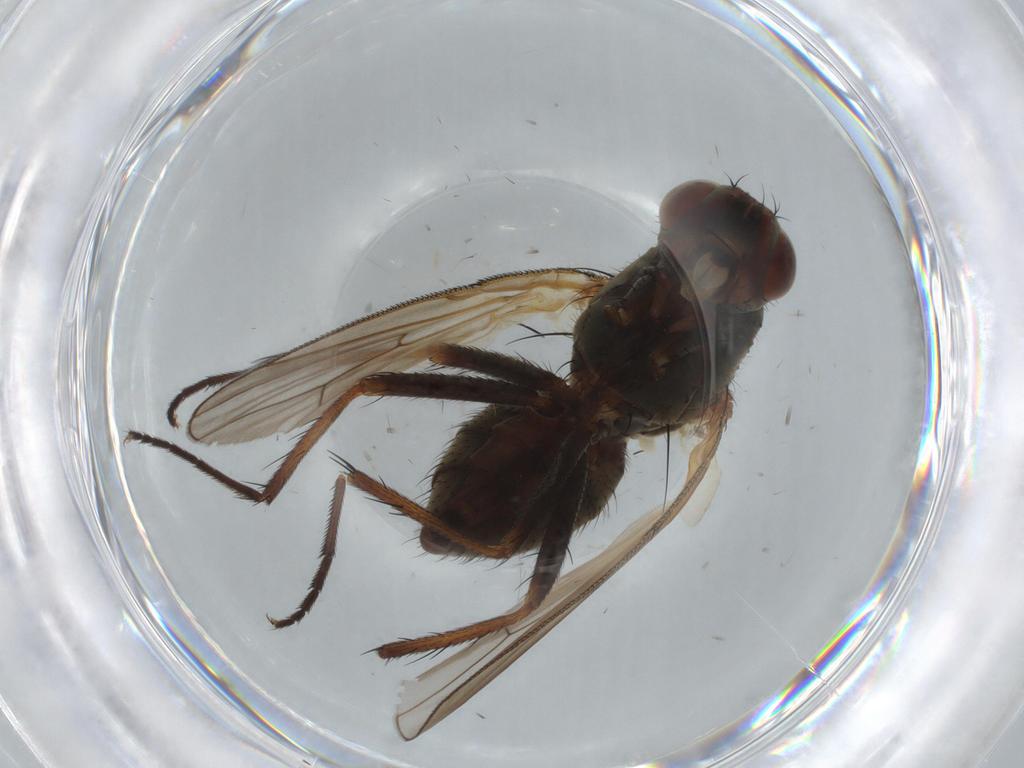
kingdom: Animalia
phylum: Arthropoda
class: Insecta
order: Diptera
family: Anthomyiidae
